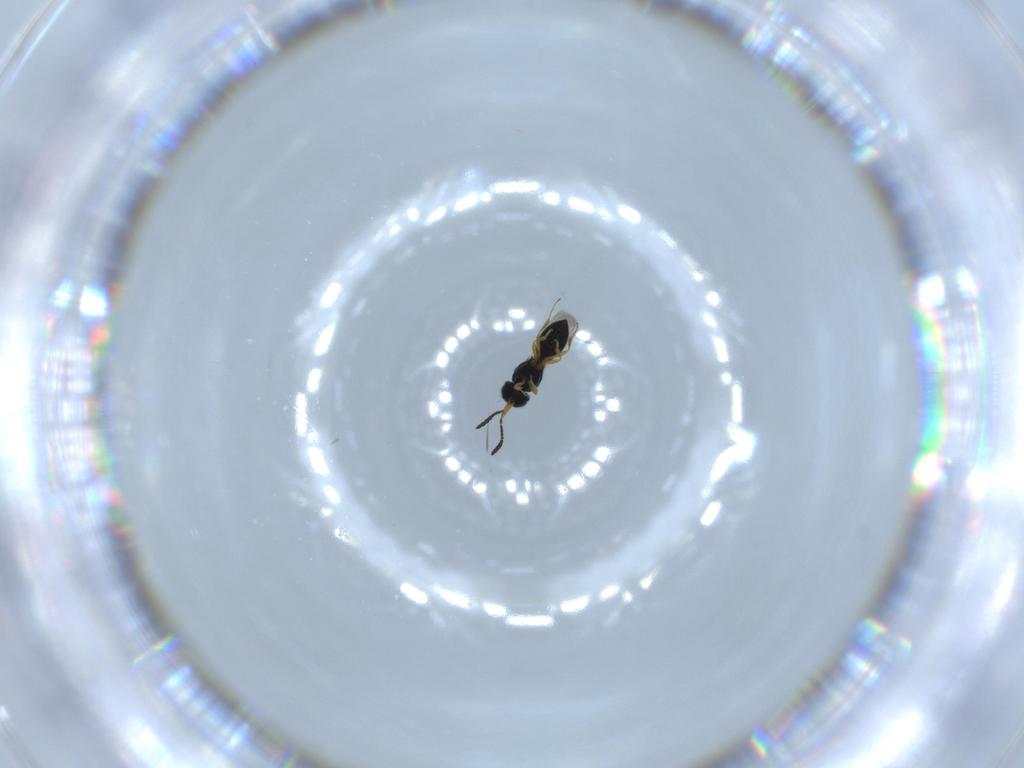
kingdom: Animalia
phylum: Arthropoda
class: Insecta
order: Hymenoptera
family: Scelionidae
